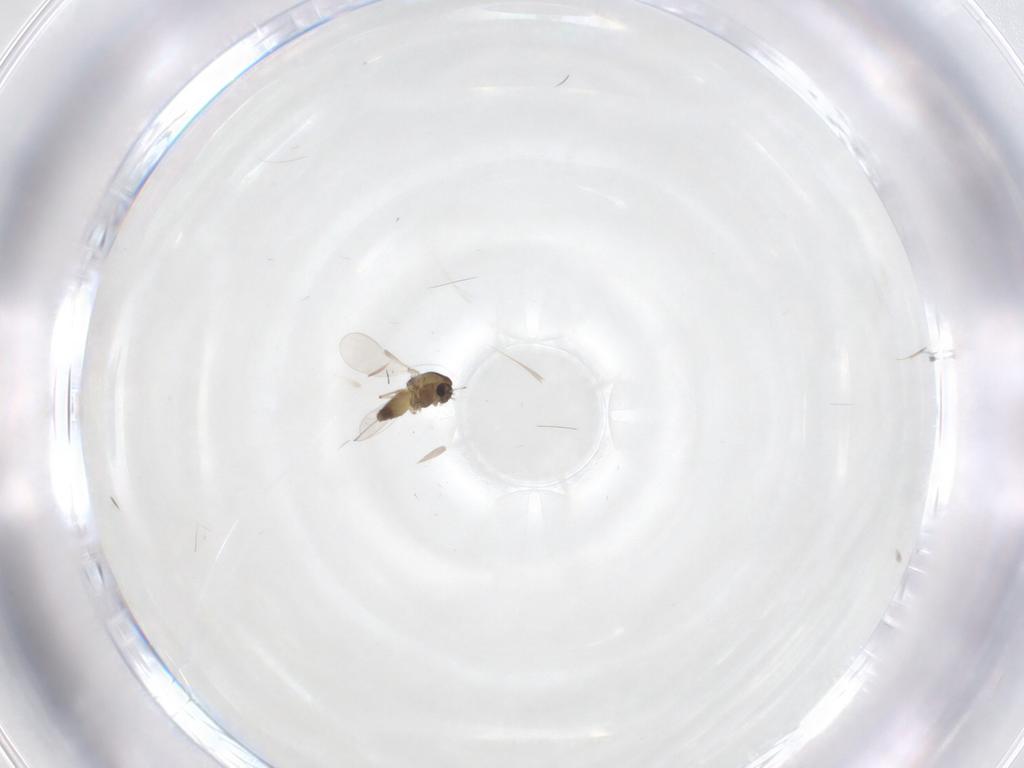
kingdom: Animalia
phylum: Arthropoda
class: Insecta
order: Diptera
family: Chironomidae
